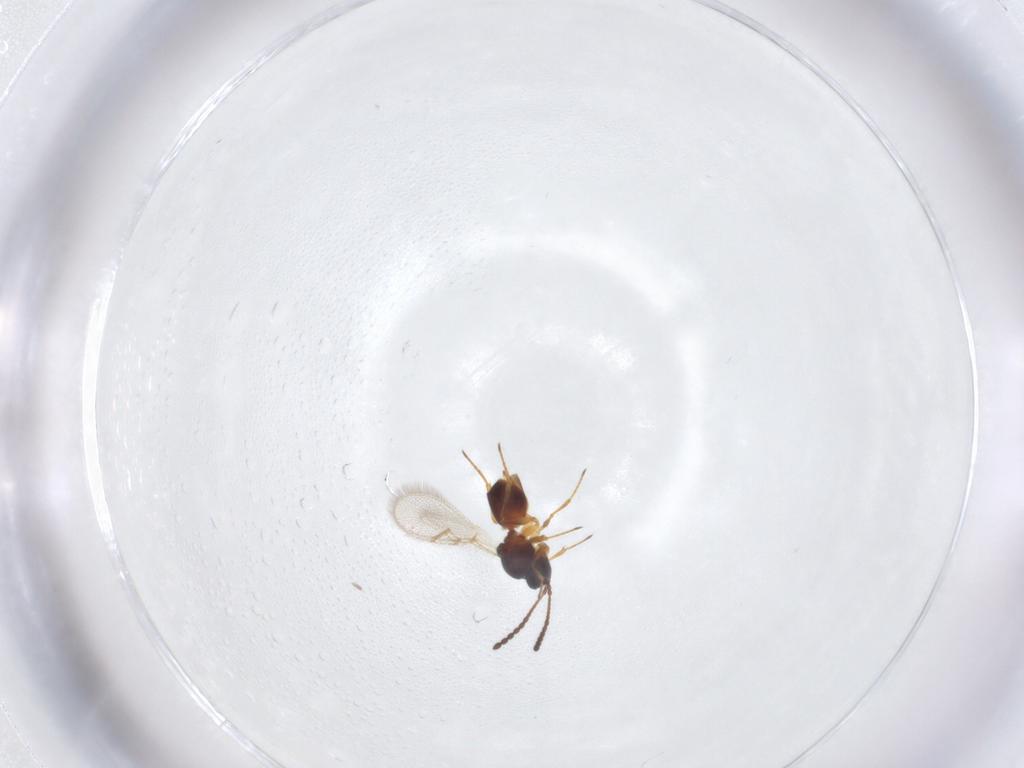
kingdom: Animalia
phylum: Arthropoda
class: Insecta
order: Hymenoptera
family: Figitidae
